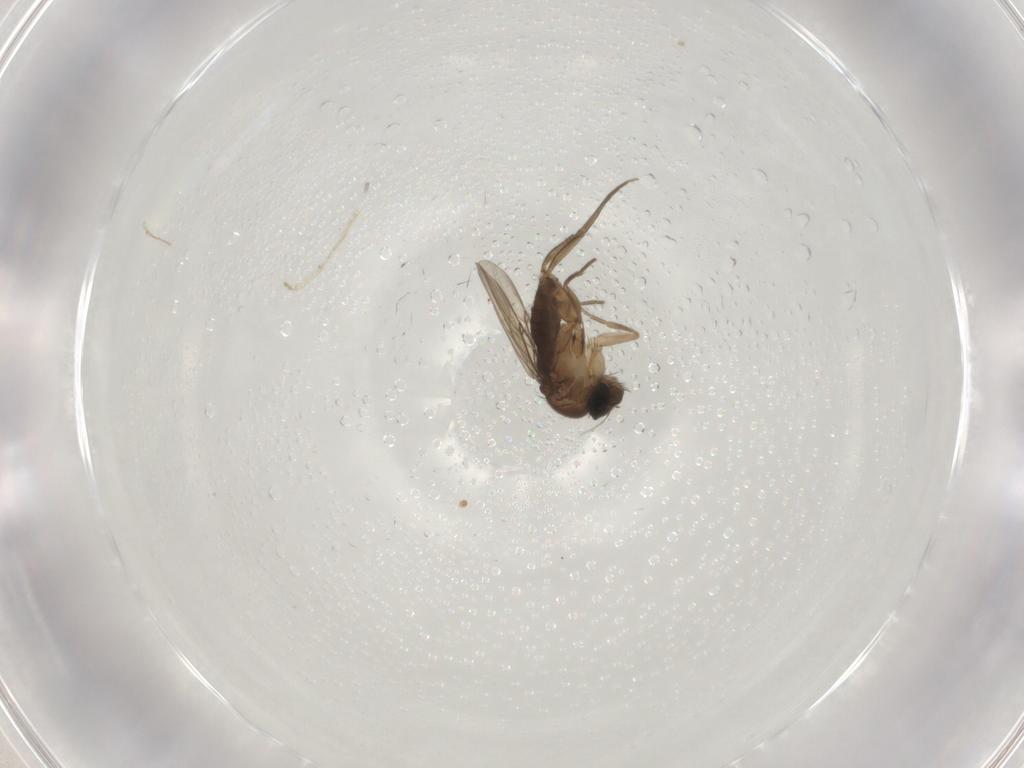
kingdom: Animalia
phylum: Arthropoda
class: Insecta
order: Diptera
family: Phoridae
